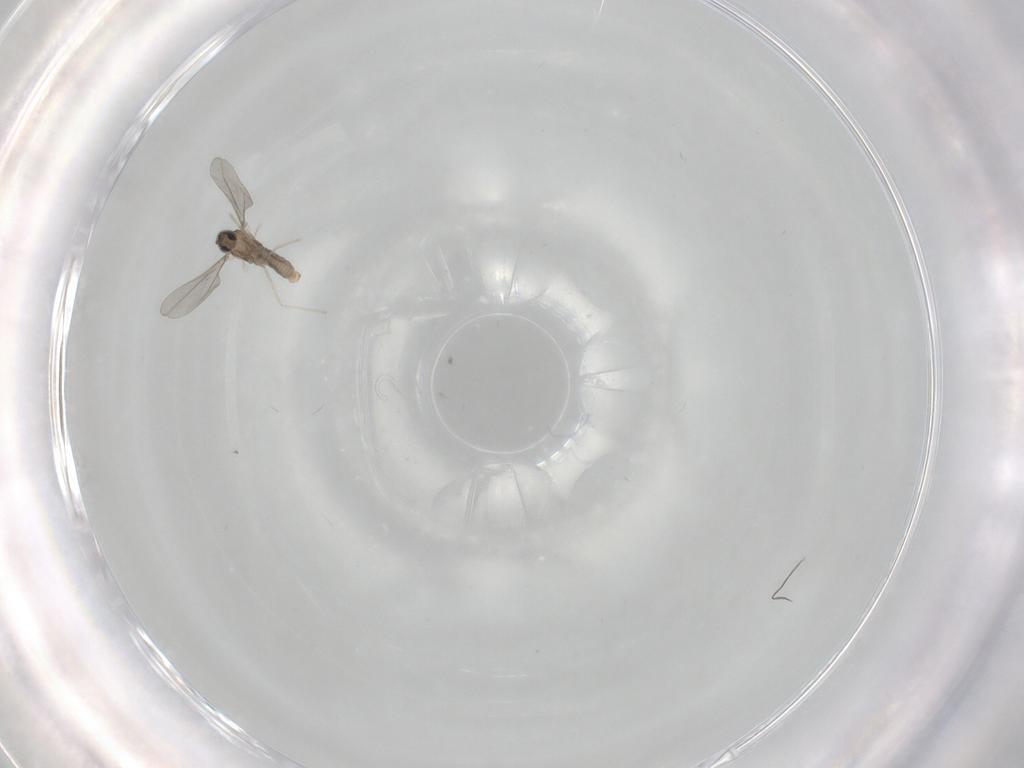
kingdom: Animalia
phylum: Arthropoda
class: Insecta
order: Diptera
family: Cecidomyiidae
